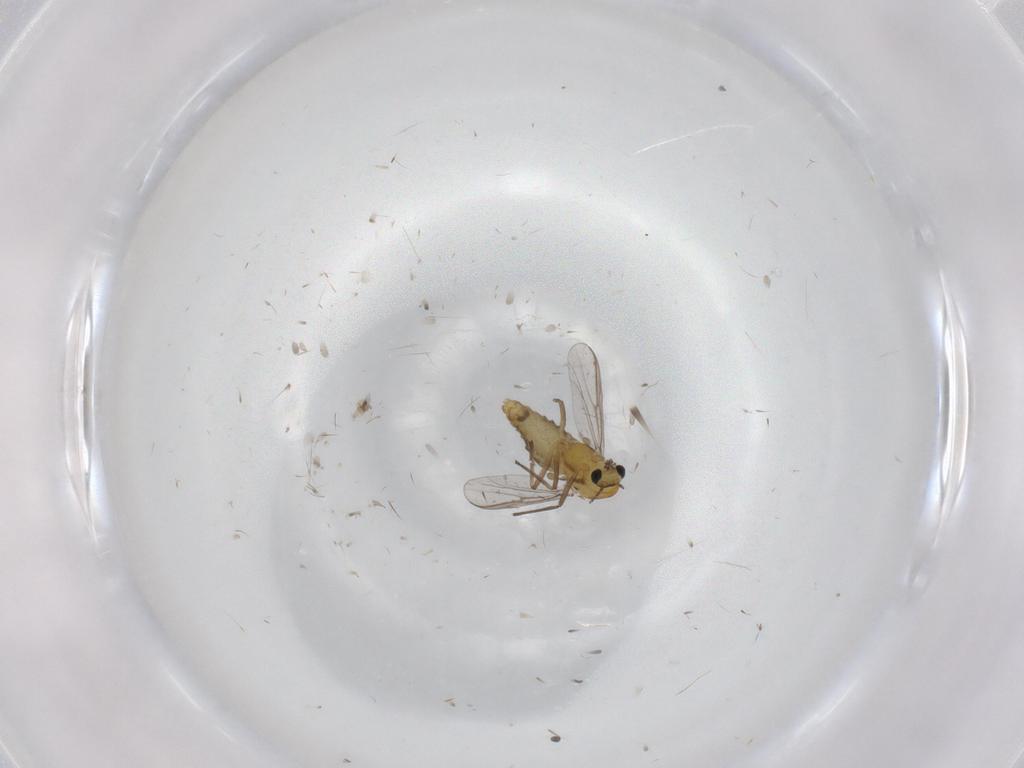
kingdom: Animalia
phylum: Arthropoda
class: Insecta
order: Diptera
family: Chironomidae
